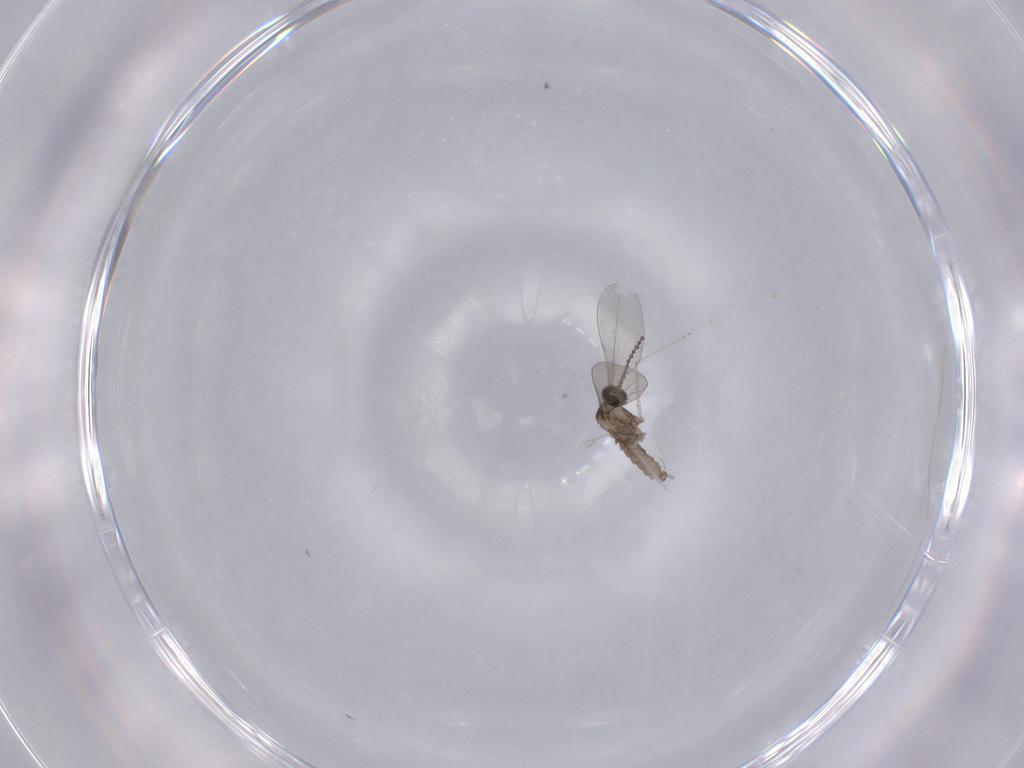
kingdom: Animalia
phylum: Arthropoda
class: Insecta
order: Diptera
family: Cecidomyiidae
